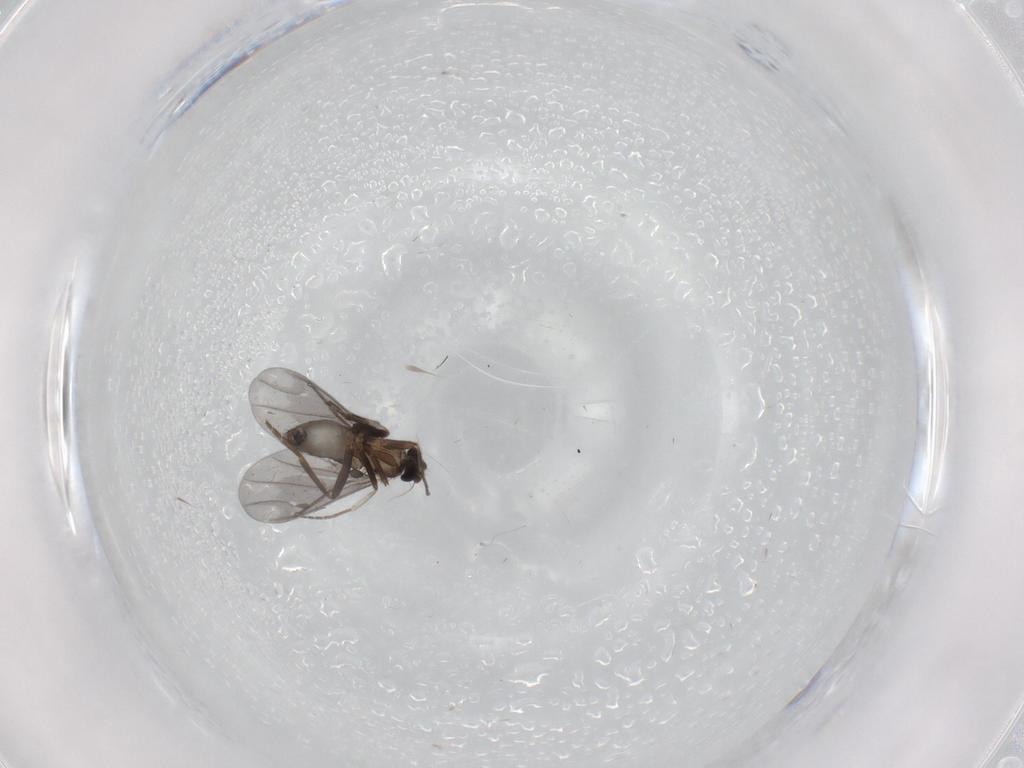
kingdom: Animalia
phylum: Arthropoda
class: Insecta
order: Diptera
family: Phoridae
